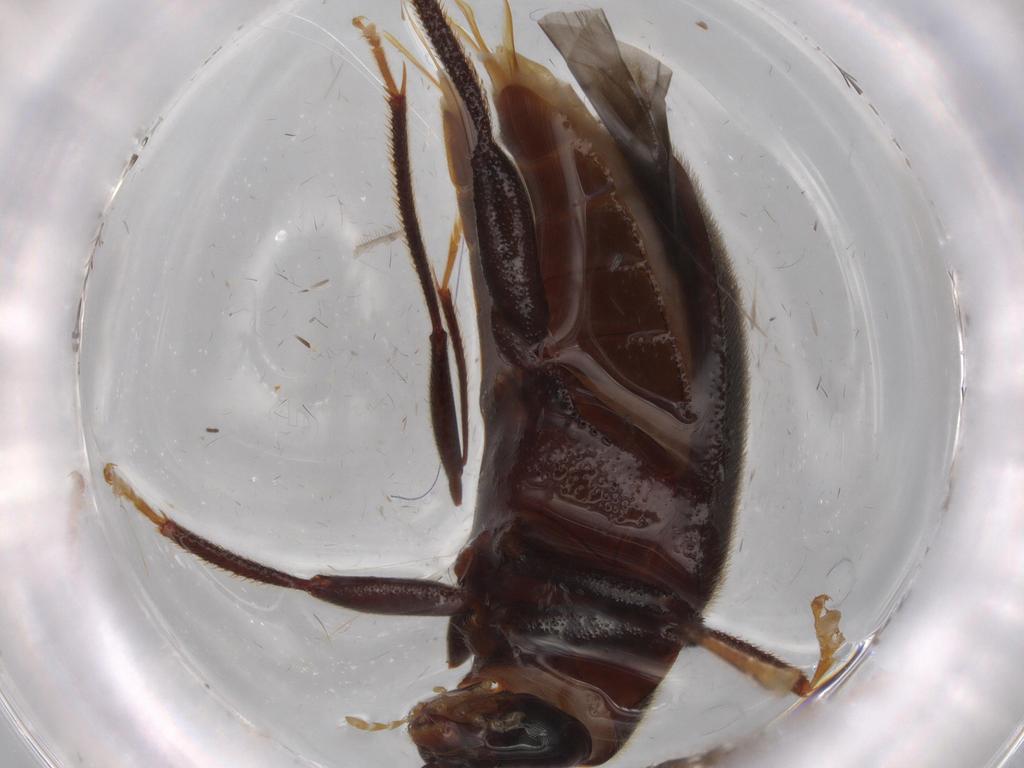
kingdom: Animalia
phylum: Arthropoda
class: Insecta
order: Coleoptera
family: Ptilodactylidae
